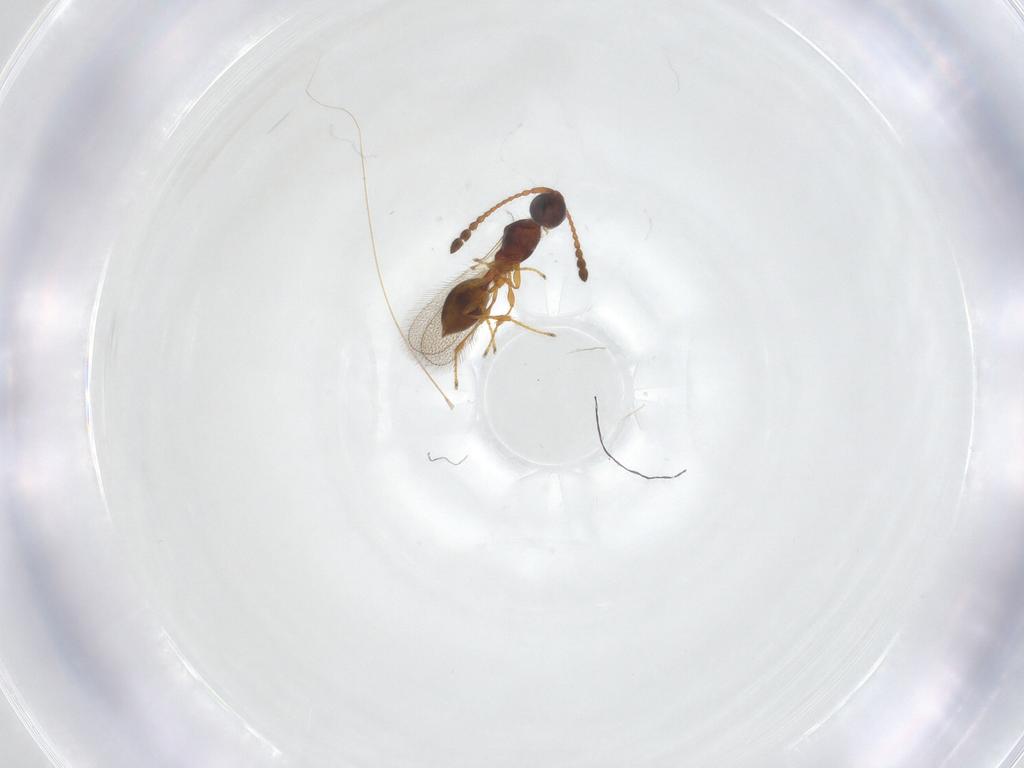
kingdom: Animalia
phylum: Arthropoda
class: Insecta
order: Hymenoptera
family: Diapriidae
